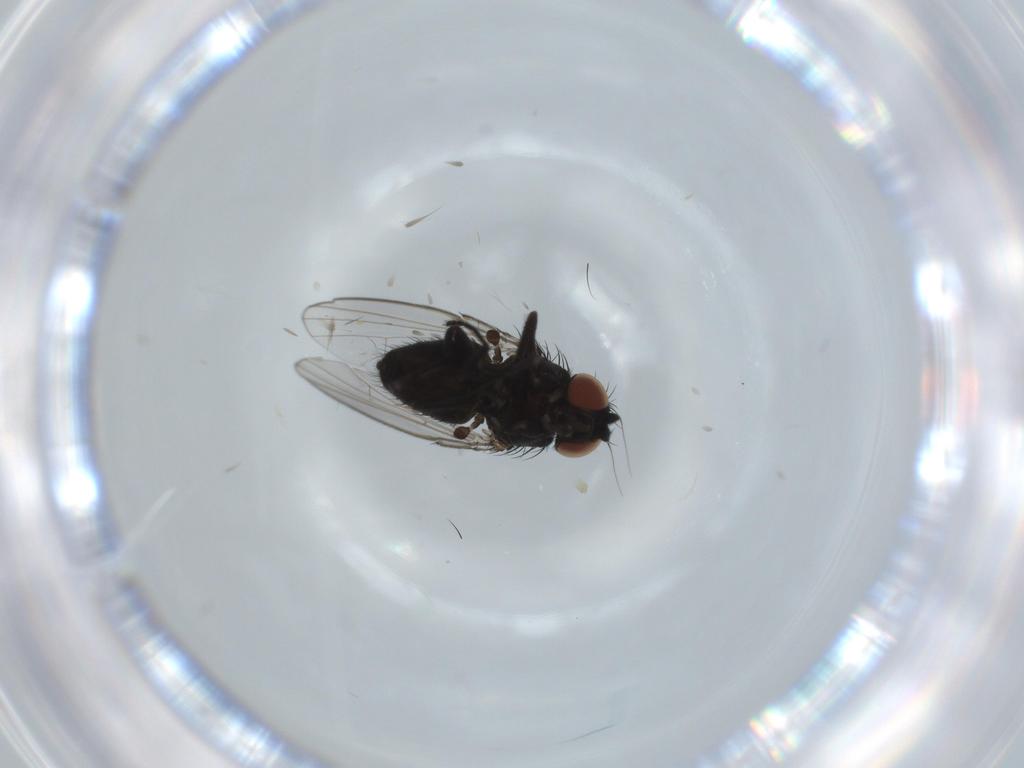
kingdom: Animalia
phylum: Arthropoda
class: Insecta
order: Diptera
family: Milichiidae
